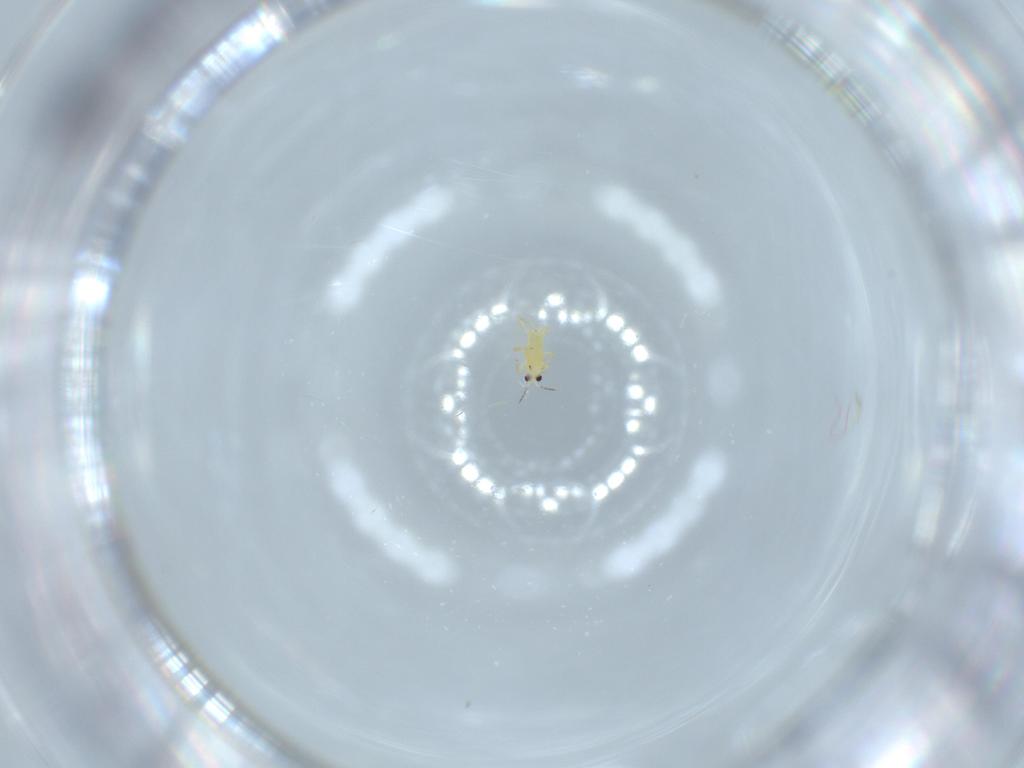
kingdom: Animalia
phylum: Arthropoda
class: Insecta
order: Thysanoptera
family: Thripidae
